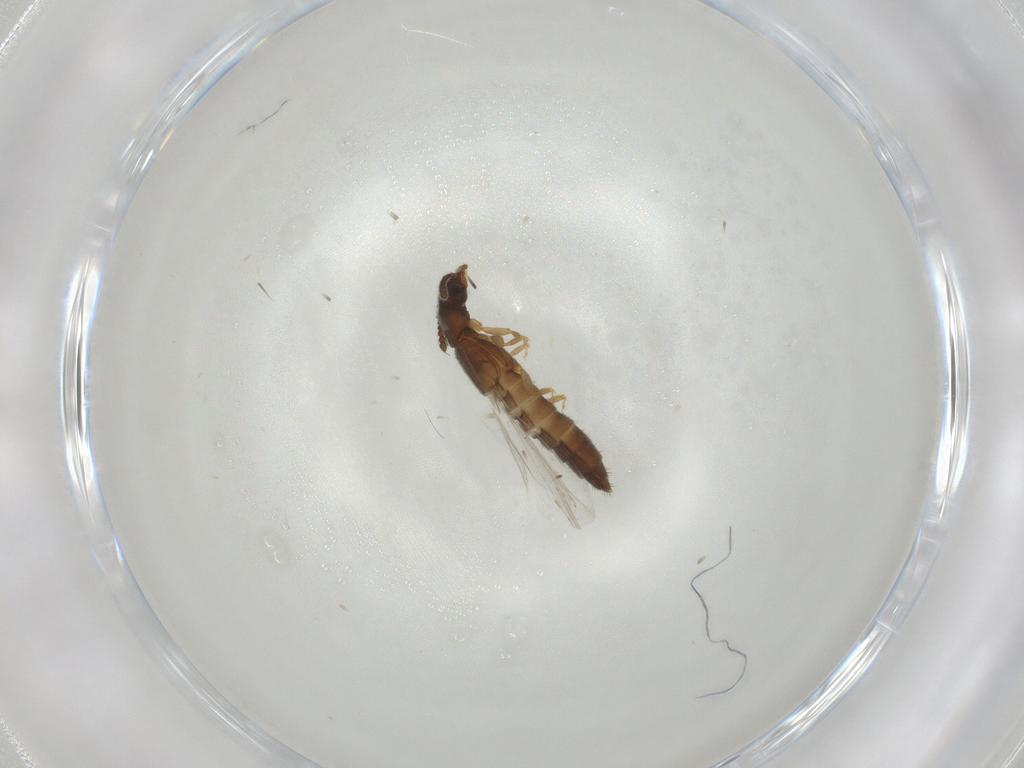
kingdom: Animalia
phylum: Arthropoda
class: Insecta
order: Coleoptera
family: Staphylinidae
